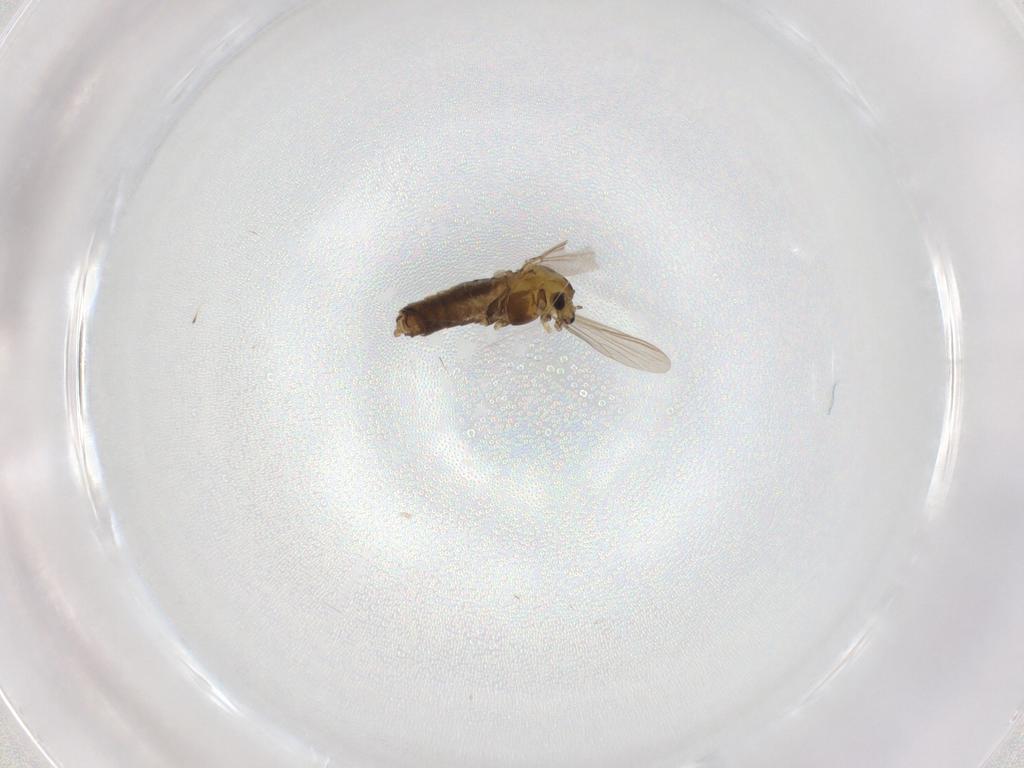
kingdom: Animalia
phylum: Arthropoda
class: Insecta
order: Diptera
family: Chironomidae
